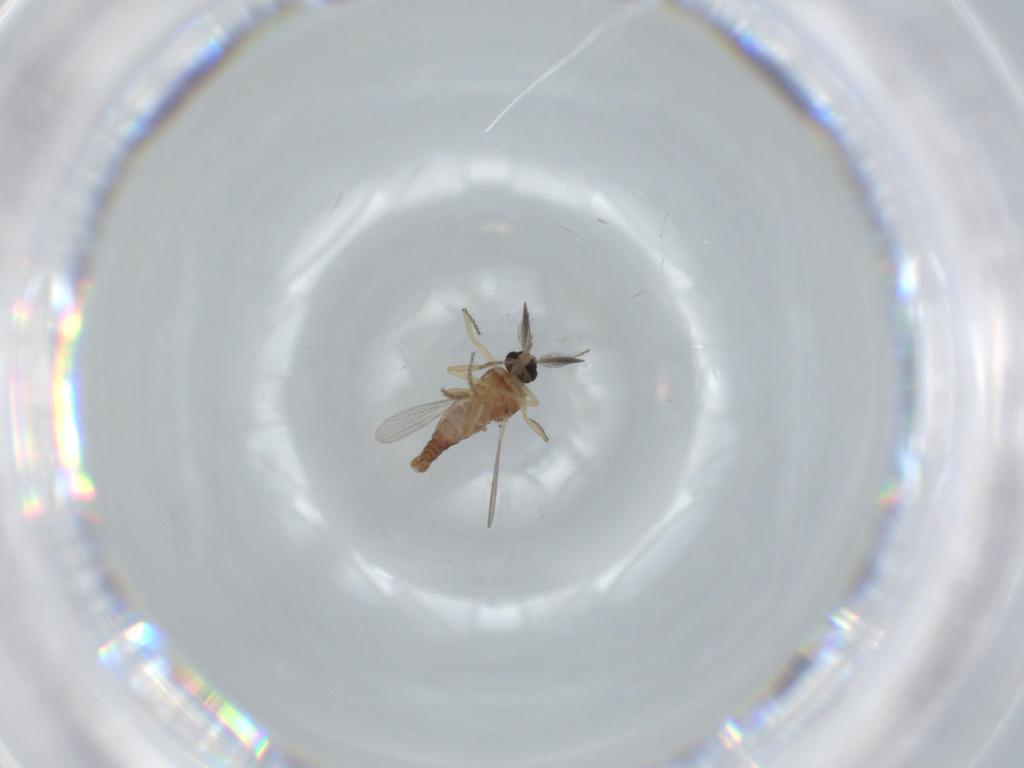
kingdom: Animalia
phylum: Arthropoda
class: Insecta
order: Diptera
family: Ceratopogonidae
